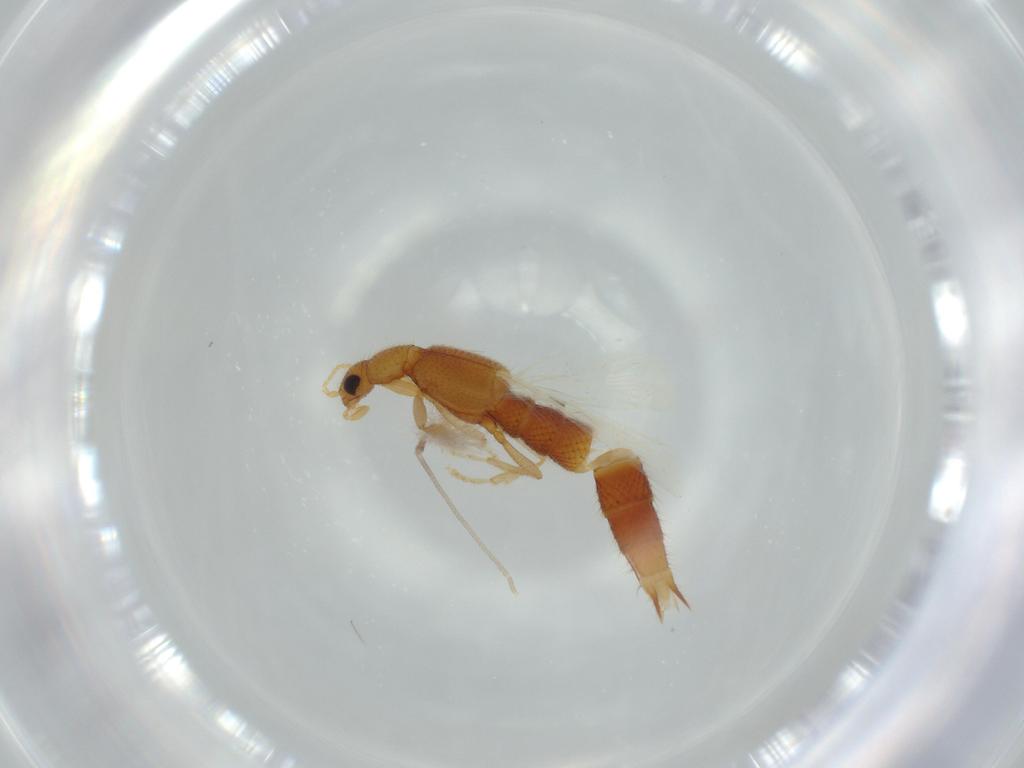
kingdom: Animalia
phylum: Arthropoda
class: Insecta
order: Coleoptera
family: Staphylinidae
